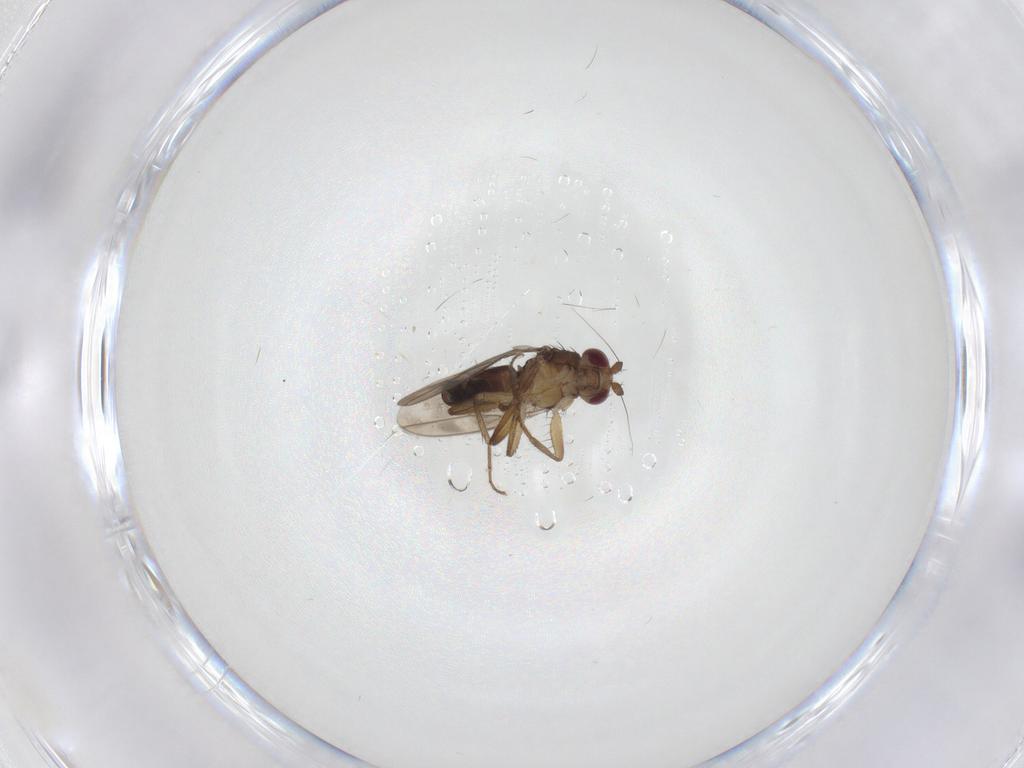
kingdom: Animalia
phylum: Arthropoda
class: Insecta
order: Diptera
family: Sphaeroceridae
